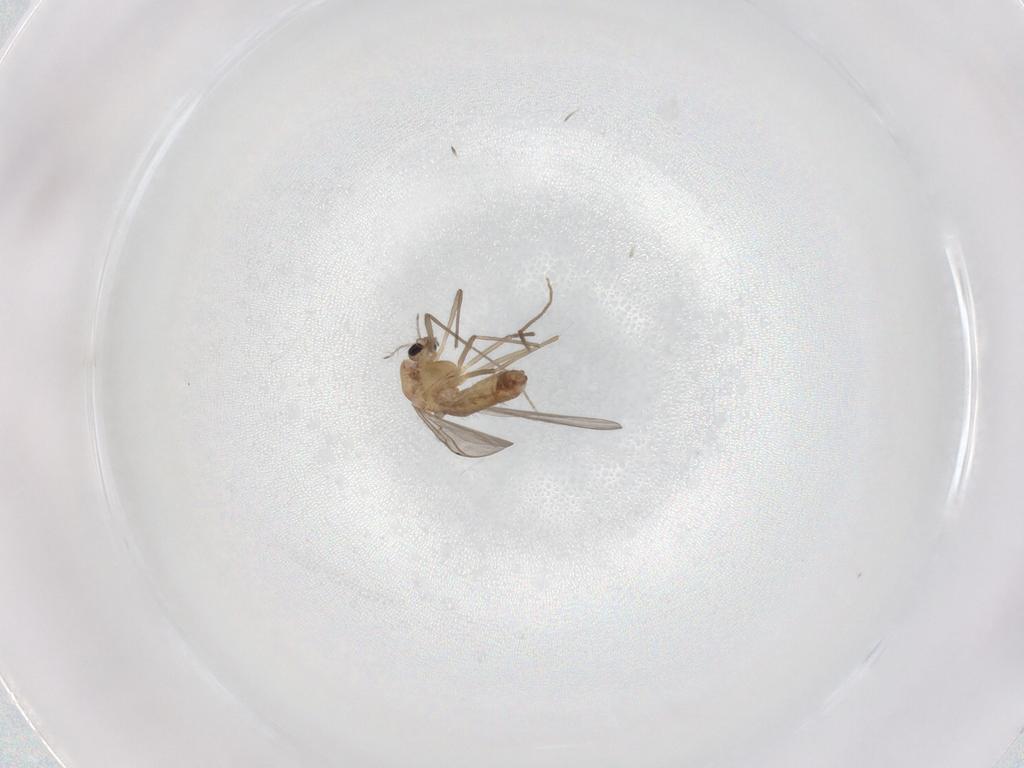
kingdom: Animalia
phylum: Arthropoda
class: Insecta
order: Diptera
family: Chironomidae
